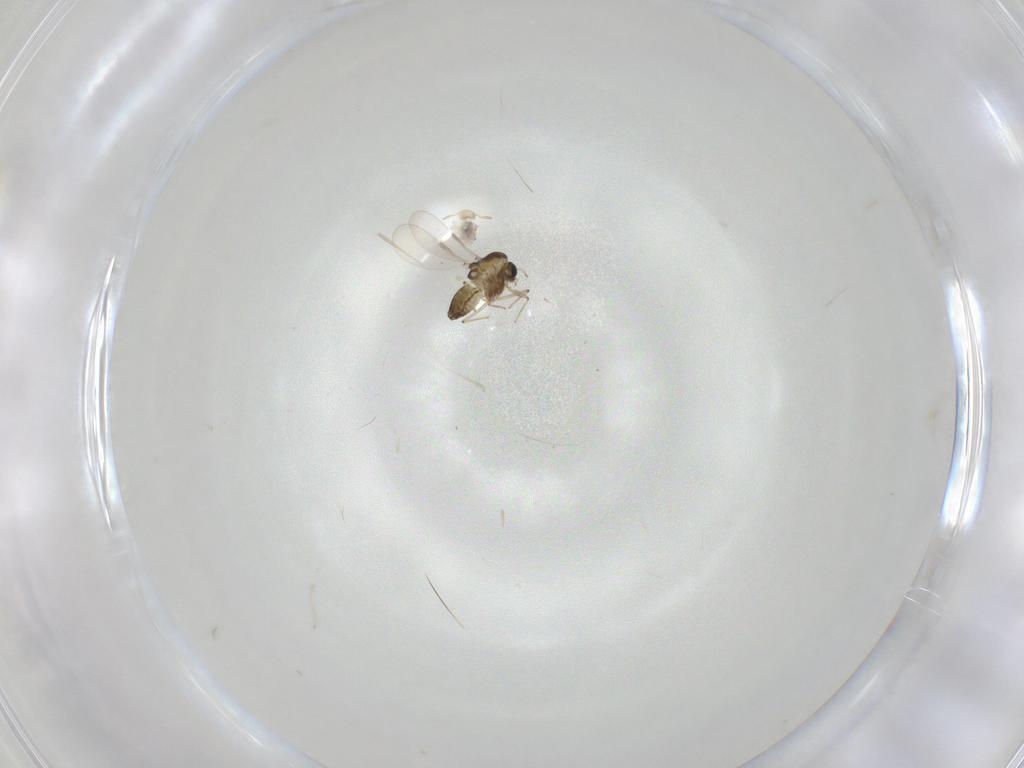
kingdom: Animalia
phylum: Arthropoda
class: Insecta
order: Diptera
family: Chironomidae
